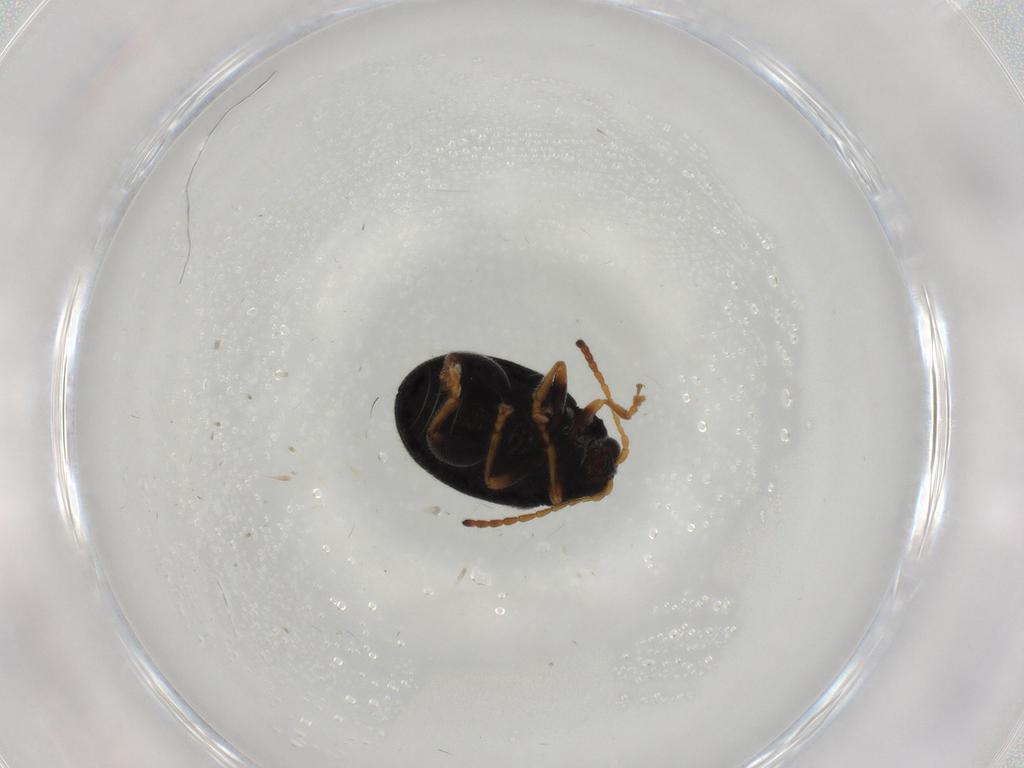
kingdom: Animalia
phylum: Arthropoda
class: Insecta
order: Coleoptera
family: Chrysomelidae
